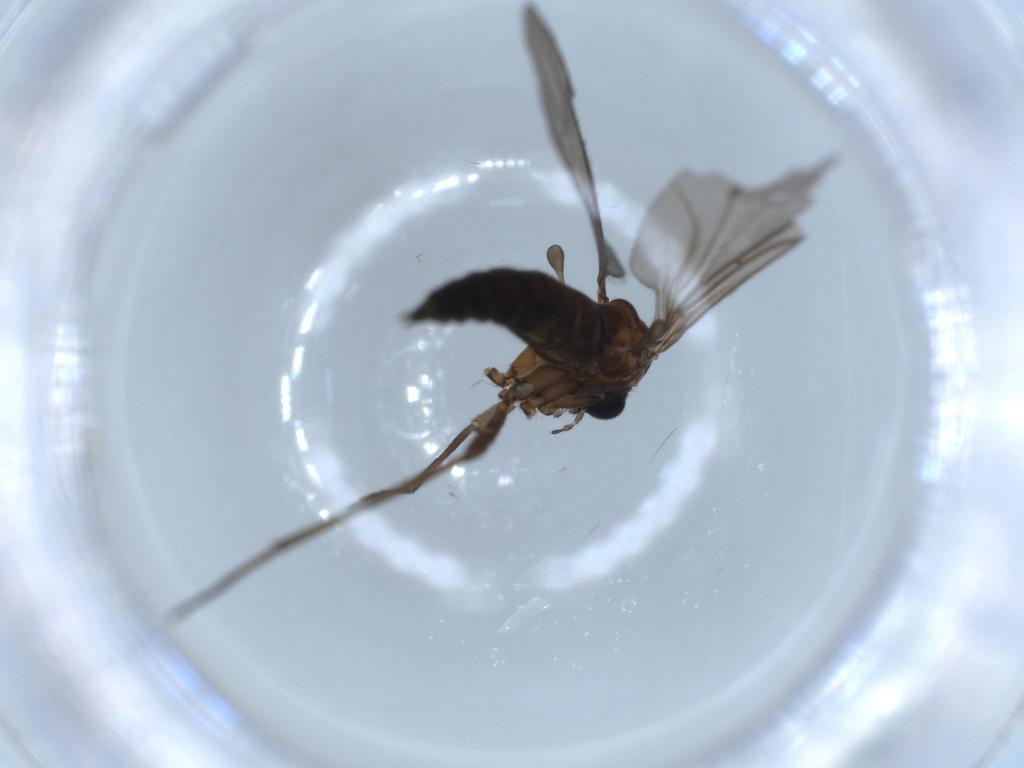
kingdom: Animalia
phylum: Arthropoda
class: Insecta
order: Diptera
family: Sciaridae
